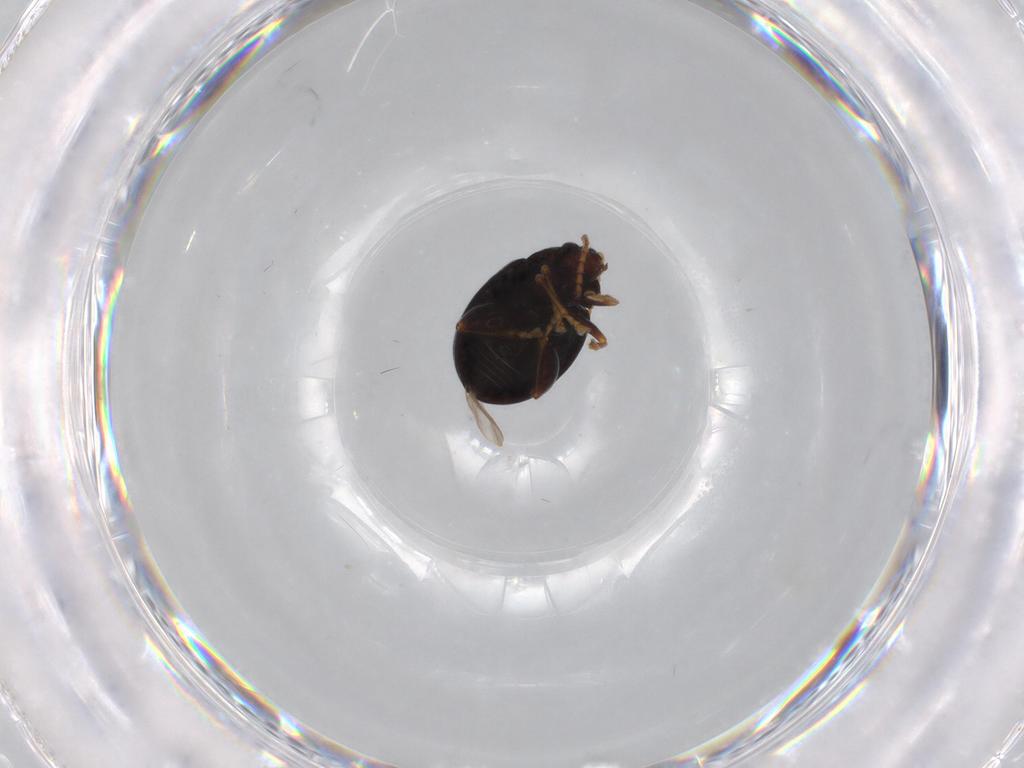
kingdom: Animalia
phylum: Arthropoda
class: Insecta
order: Coleoptera
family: Chrysomelidae
